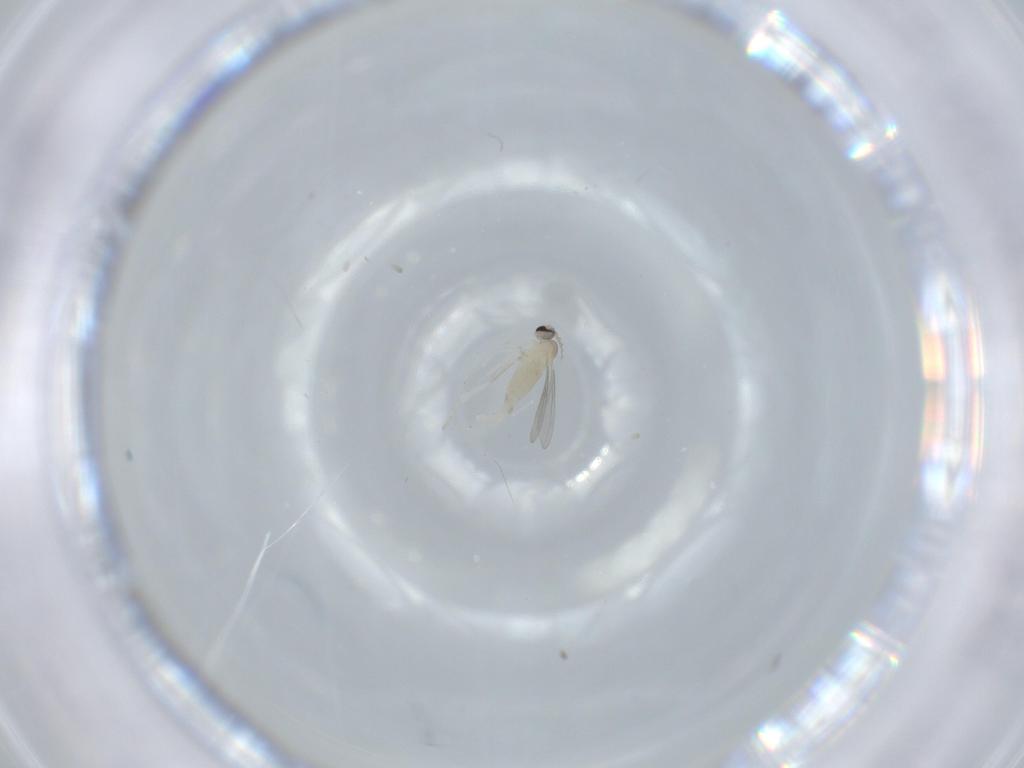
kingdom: Animalia
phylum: Arthropoda
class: Insecta
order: Diptera
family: Cecidomyiidae
